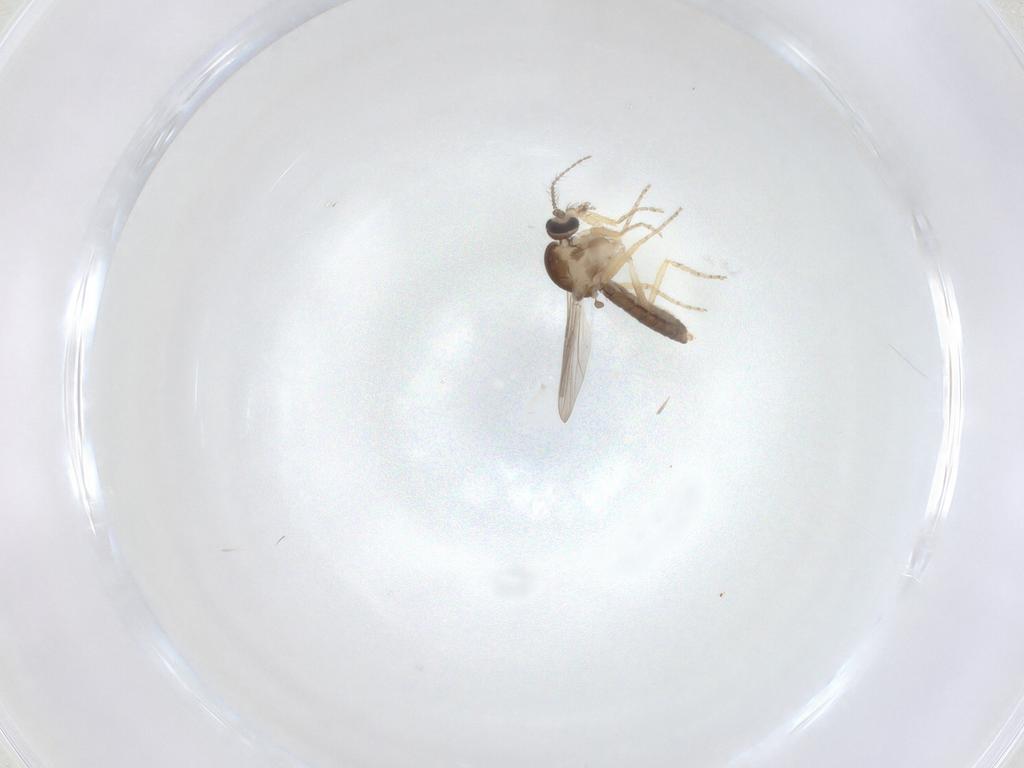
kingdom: Animalia
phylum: Arthropoda
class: Insecta
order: Diptera
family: Ceratopogonidae
